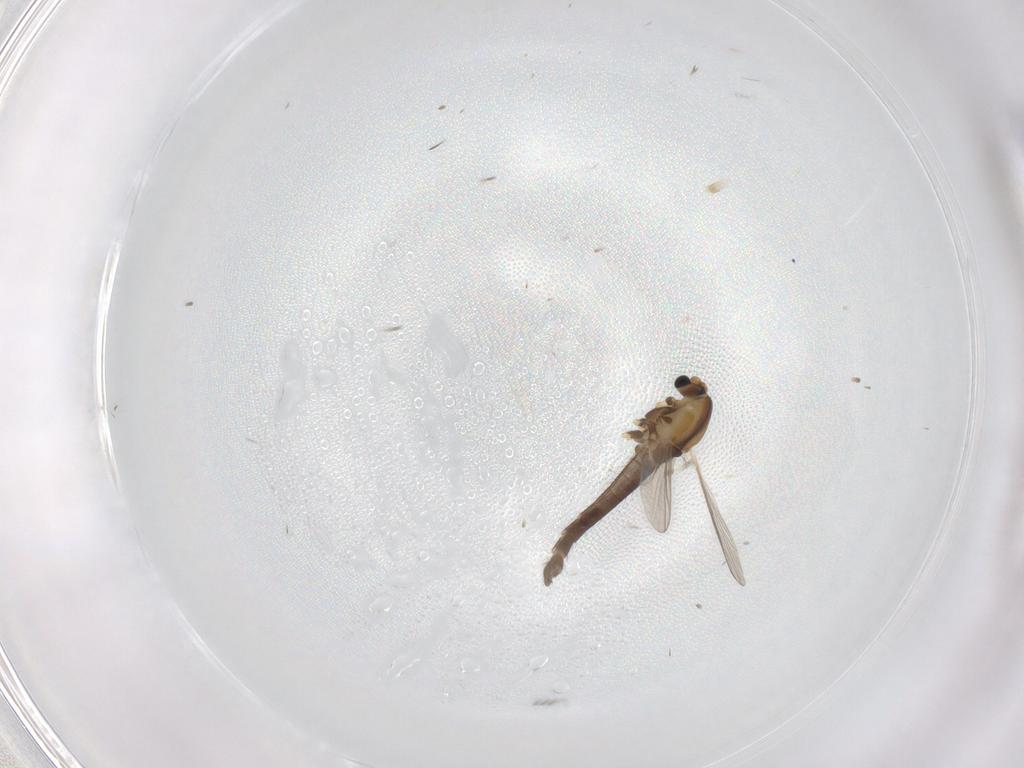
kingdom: Animalia
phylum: Arthropoda
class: Insecta
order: Diptera
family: Chironomidae
